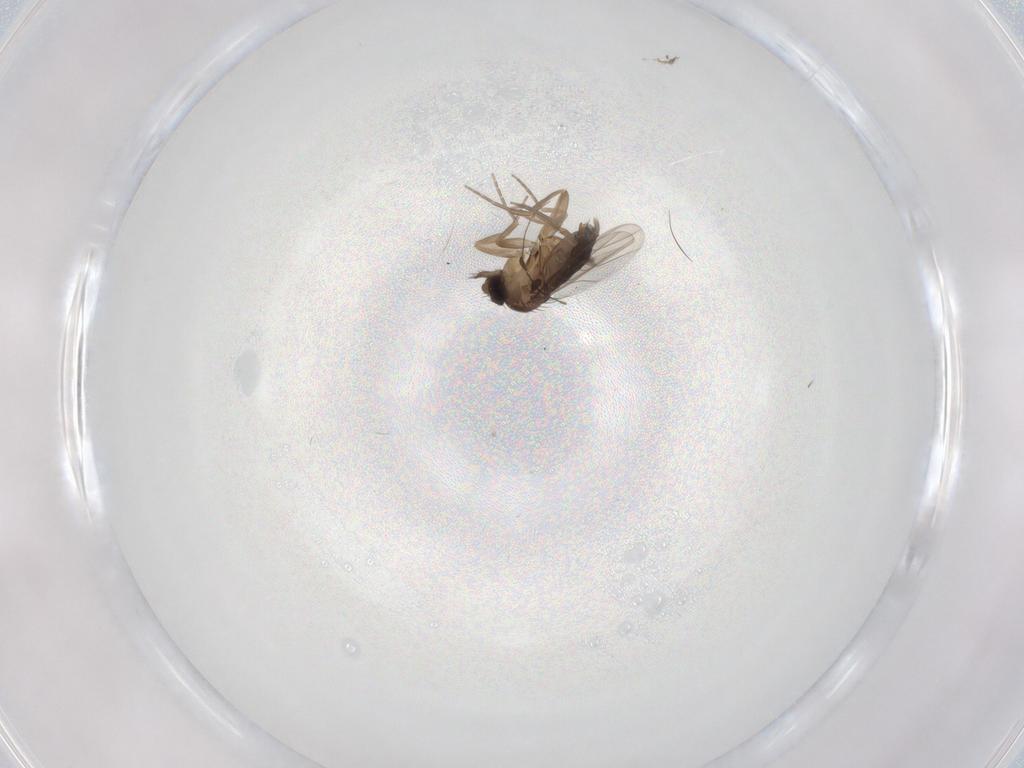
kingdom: Animalia
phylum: Arthropoda
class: Insecta
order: Diptera
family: Phoridae
